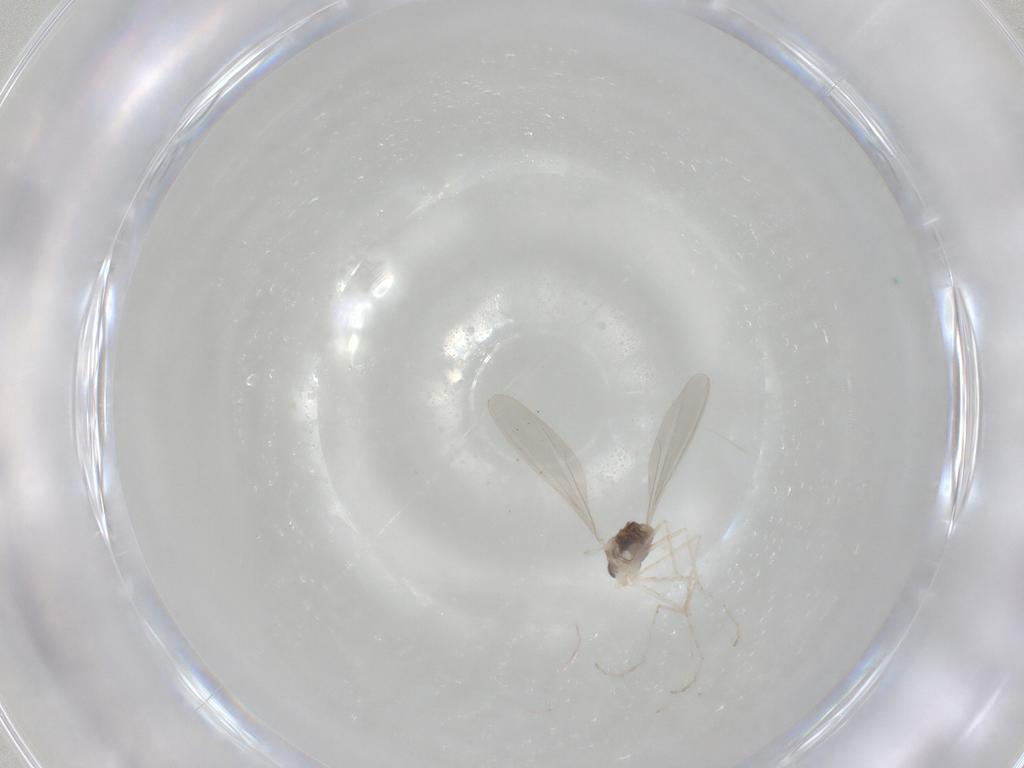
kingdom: Animalia
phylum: Arthropoda
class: Insecta
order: Diptera
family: Cecidomyiidae
